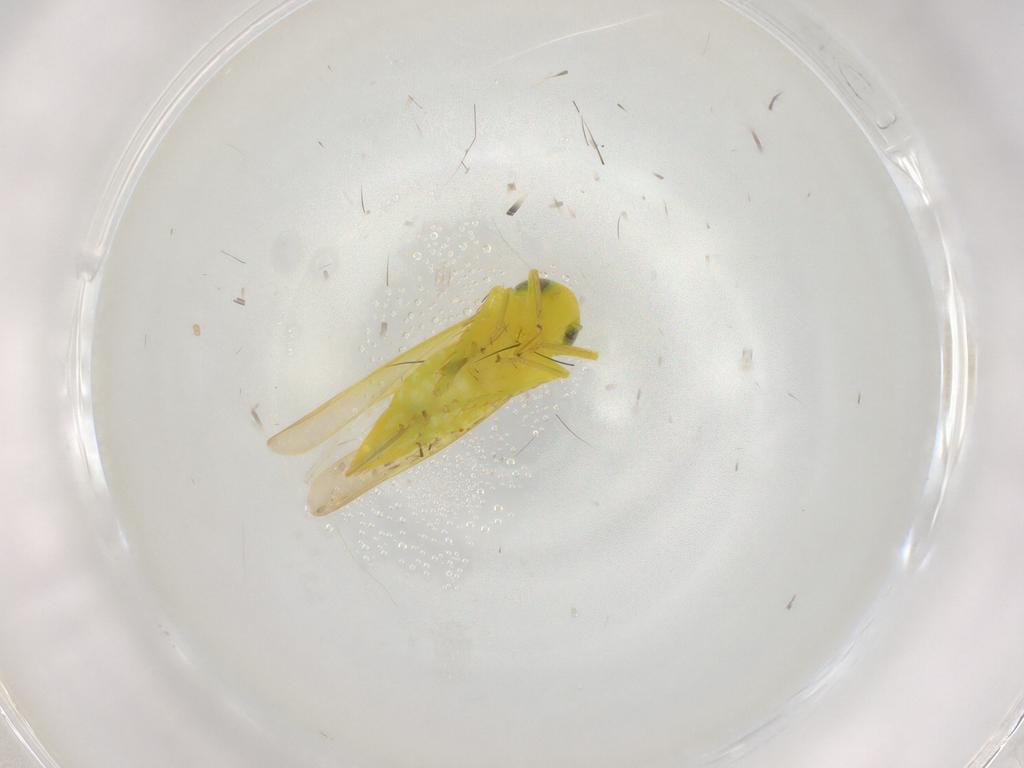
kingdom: Animalia
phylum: Arthropoda
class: Insecta
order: Hemiptera
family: Cicadellidae
